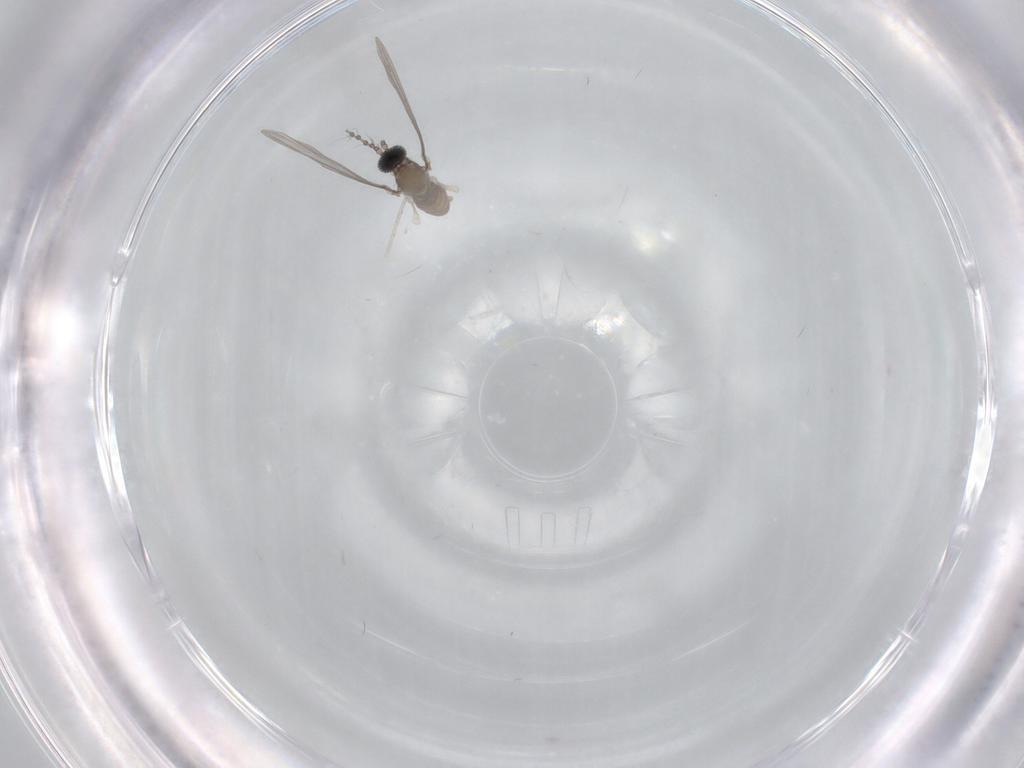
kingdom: Animalia
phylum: Arthropoda
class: Insecta
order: Diptera
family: Cecidomyiidae
